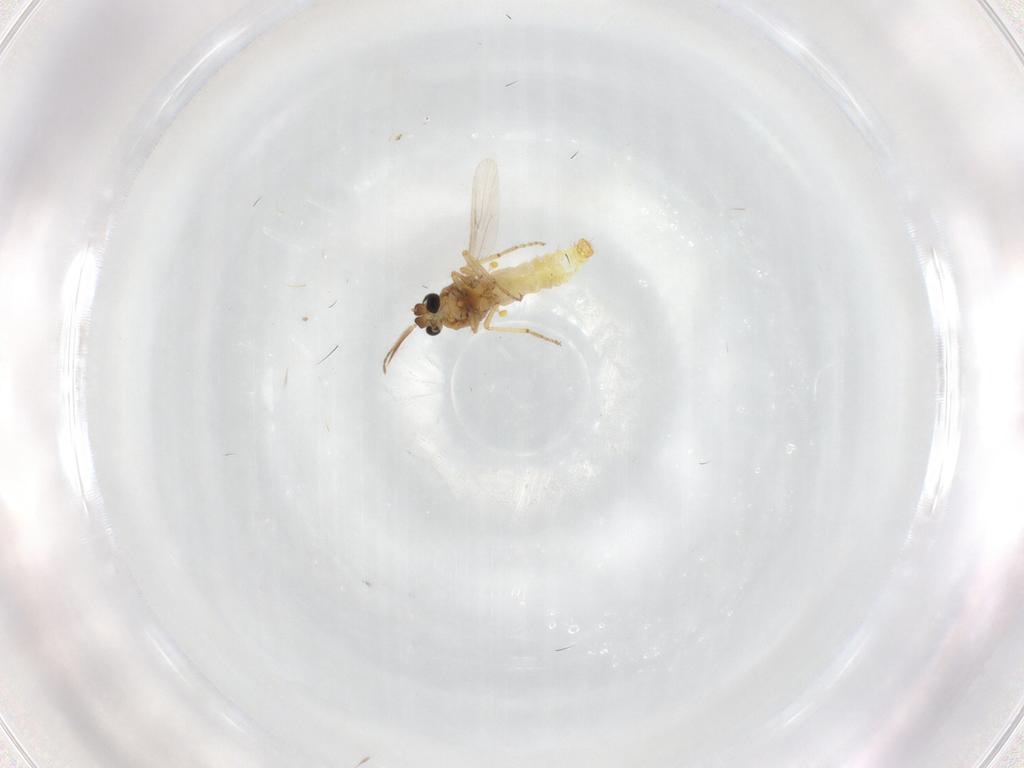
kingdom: Animalia
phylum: Arthropoda
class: Insecta
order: Diptera
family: Ceratopogonidae
